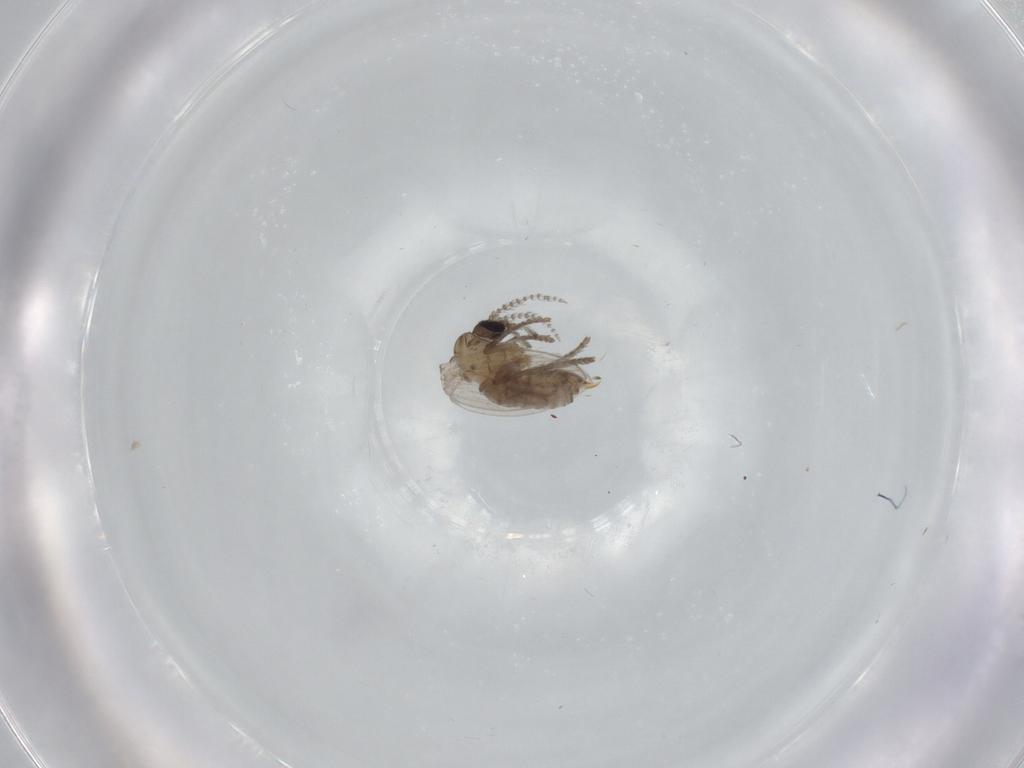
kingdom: Animalia
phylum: Arthropoda
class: Insecta
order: Diptera
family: Psychodidae
